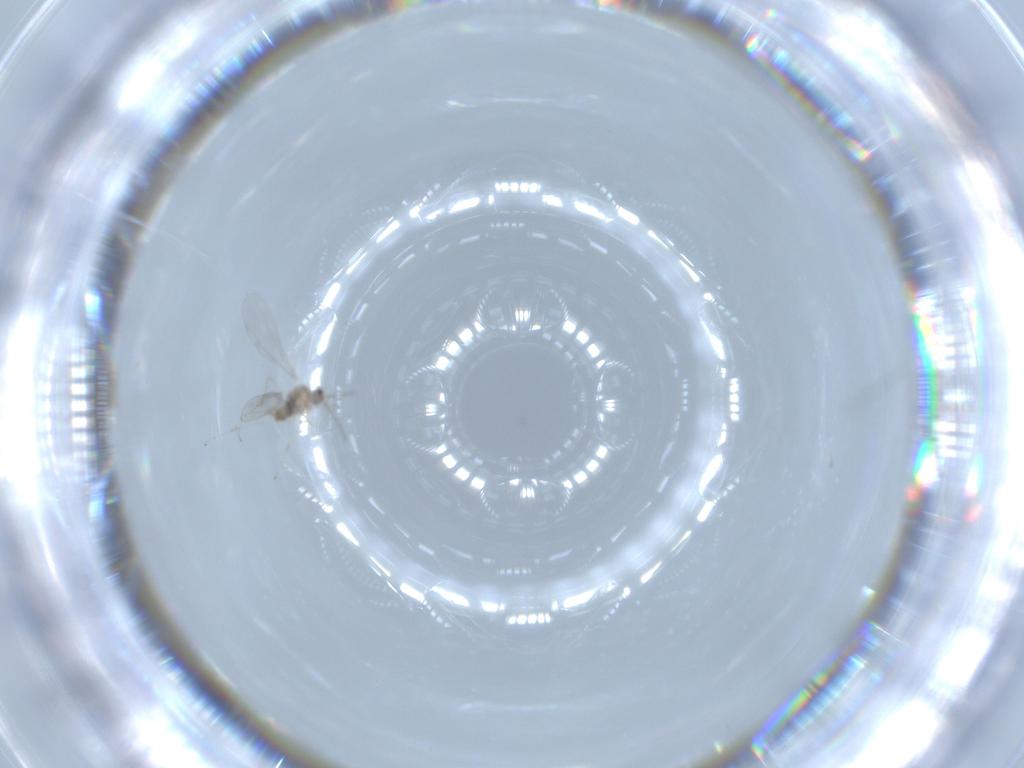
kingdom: Animalia
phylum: Arthropoda
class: Insecta
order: Diptera
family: Cecidomyiidae
